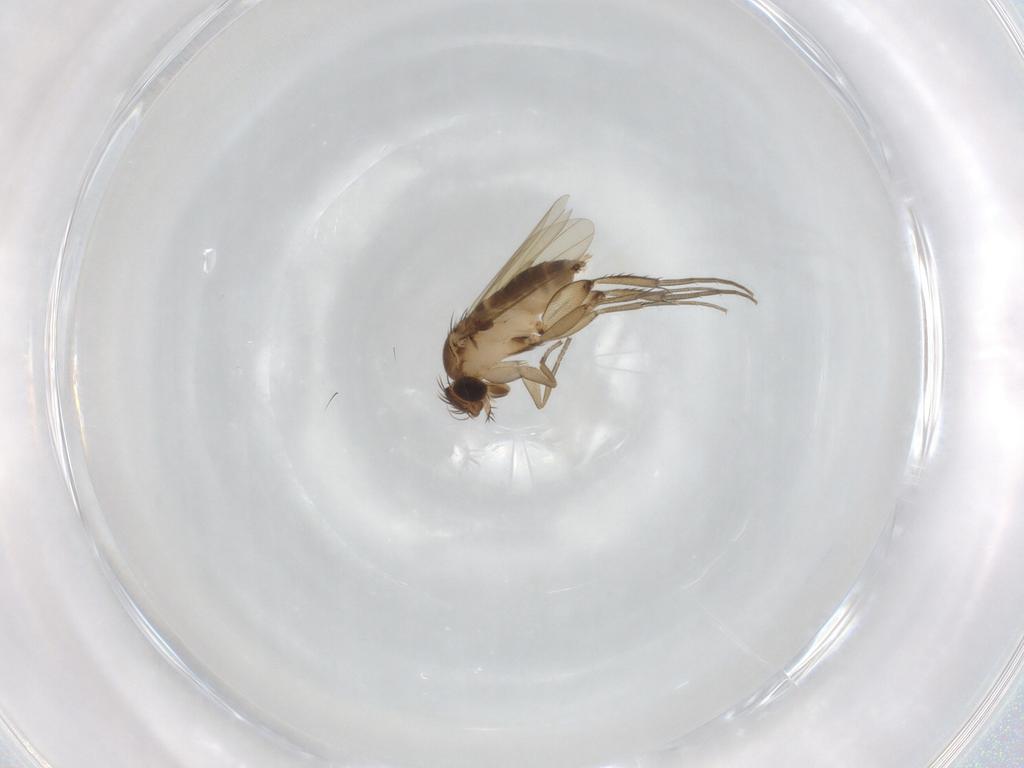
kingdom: Animalia
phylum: Arthropoda
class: Insecta
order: Diptera
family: Phoridae
